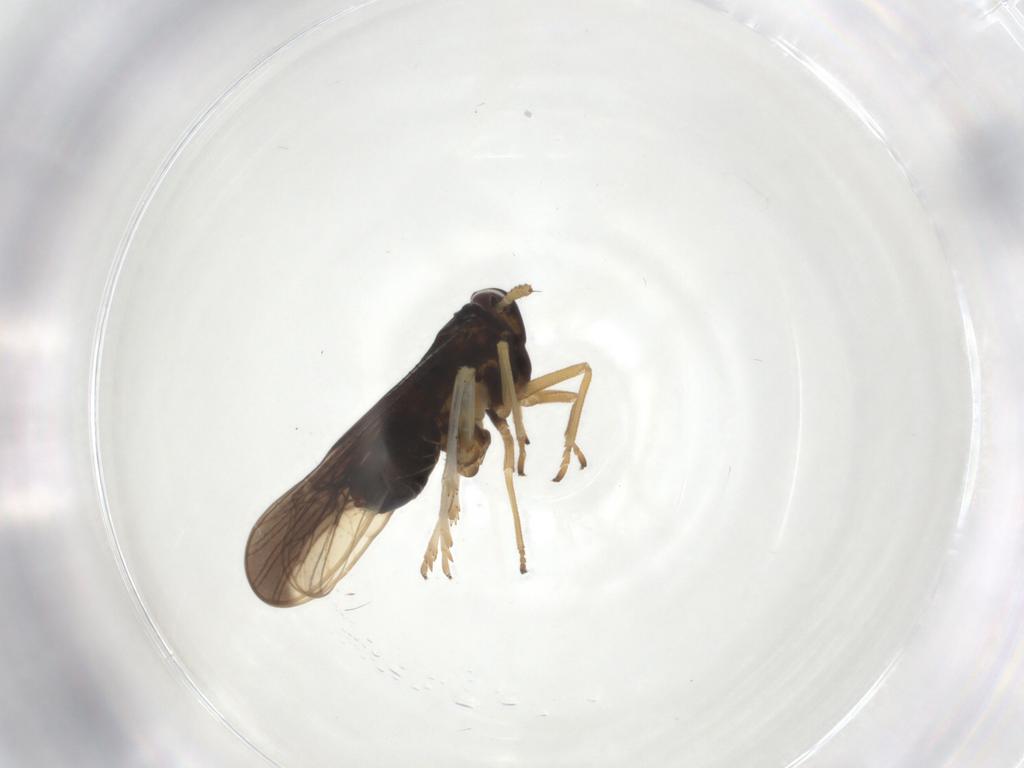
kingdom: Animalia
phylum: Arthropoda
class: Insecta
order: Hemiptera
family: Delphacidae
